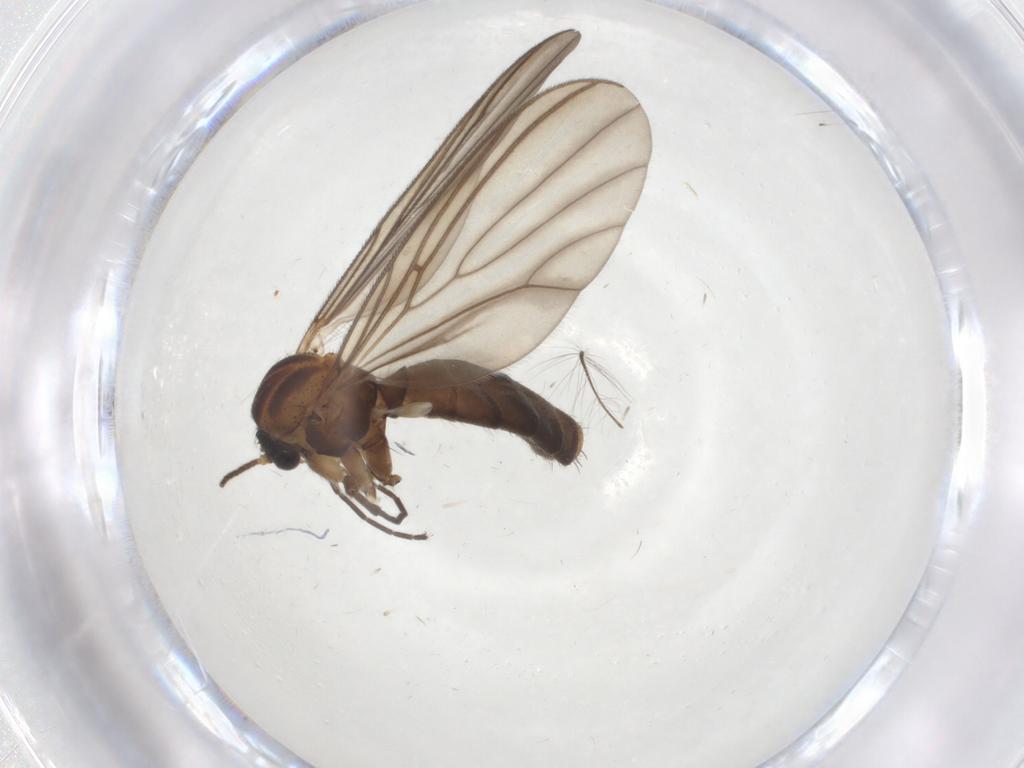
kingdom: Animalia
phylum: Arthropoda
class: Insecta
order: Diptera
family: Mycetophilidae
